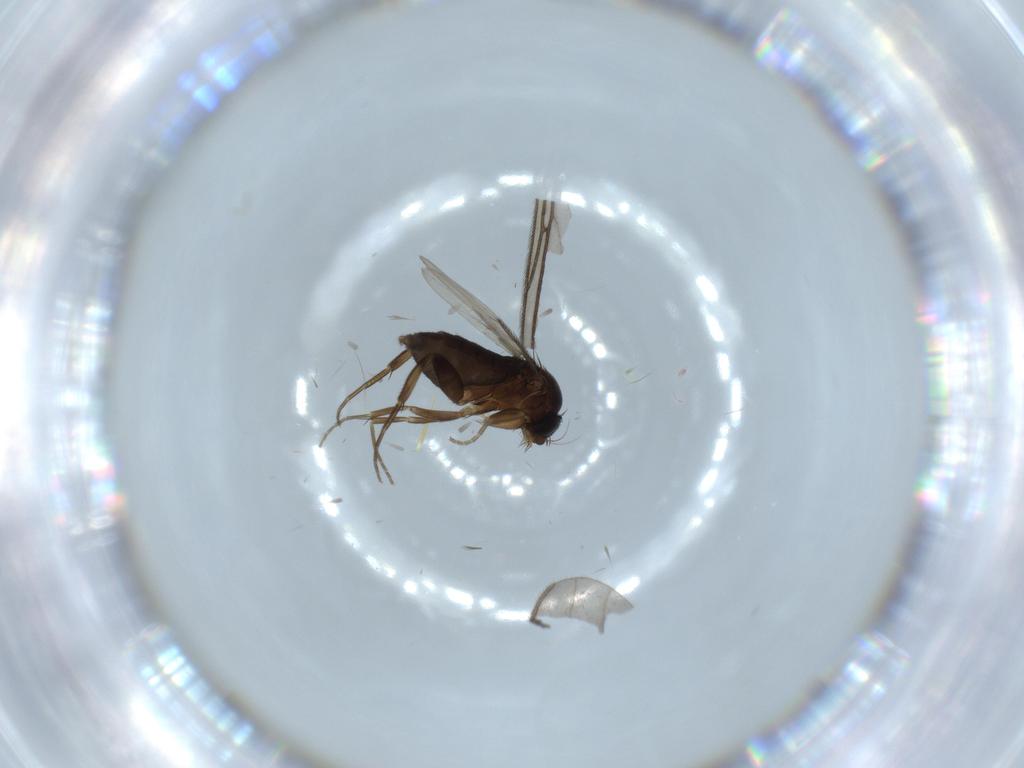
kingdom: Animalia
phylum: Arthropoda
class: Insecta
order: Diptera
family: Phoridae
